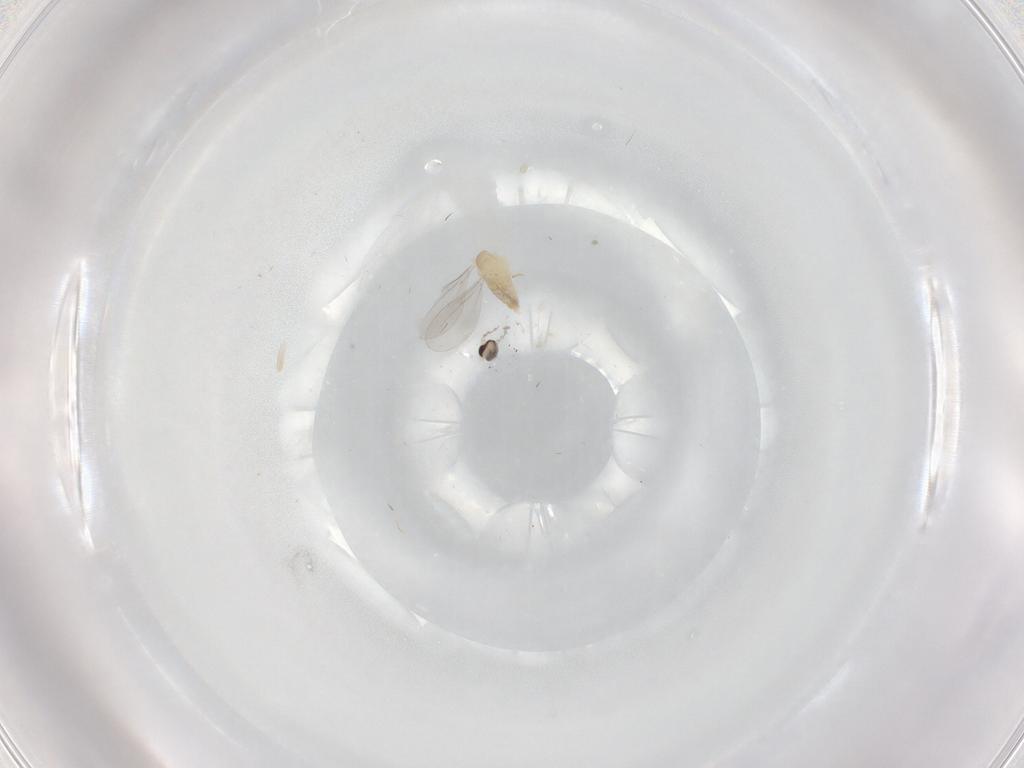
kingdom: Animalia
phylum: Arthropoda
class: Insecta
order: Diptera
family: Cecidomyiidae
